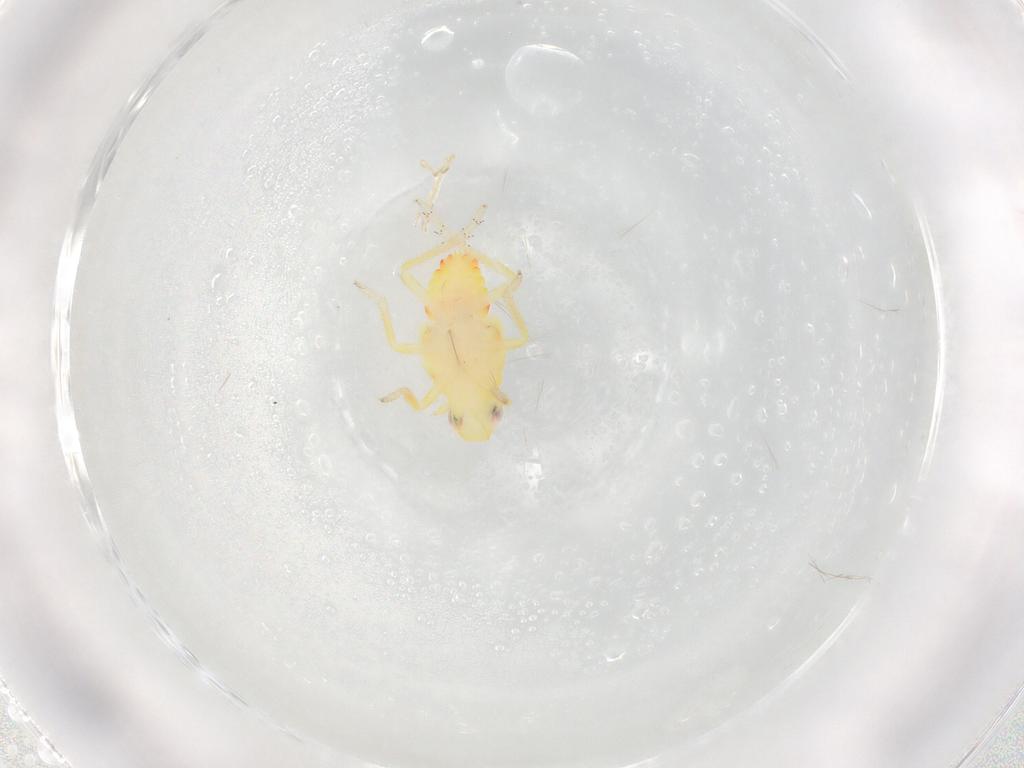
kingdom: Animalia
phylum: Arthropoda
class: Insecta
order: Hemiptera
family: Tropiduchidae
